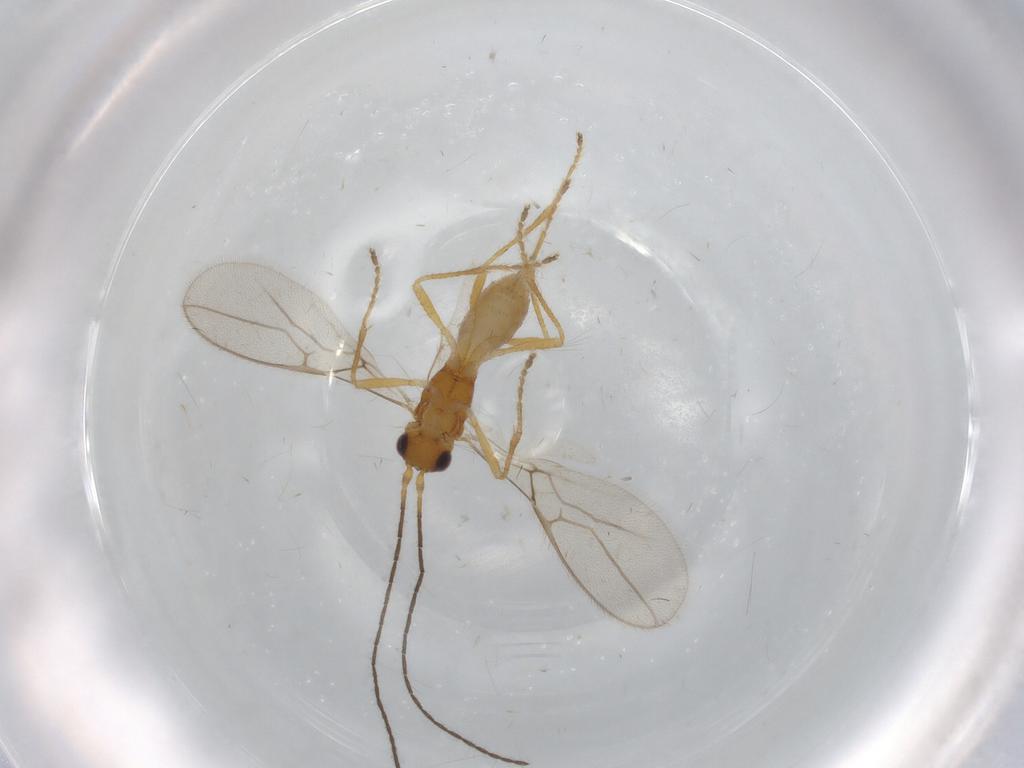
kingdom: Animalia
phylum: Arthropoda
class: Insecta
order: Hymenoptera
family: Braconidae
